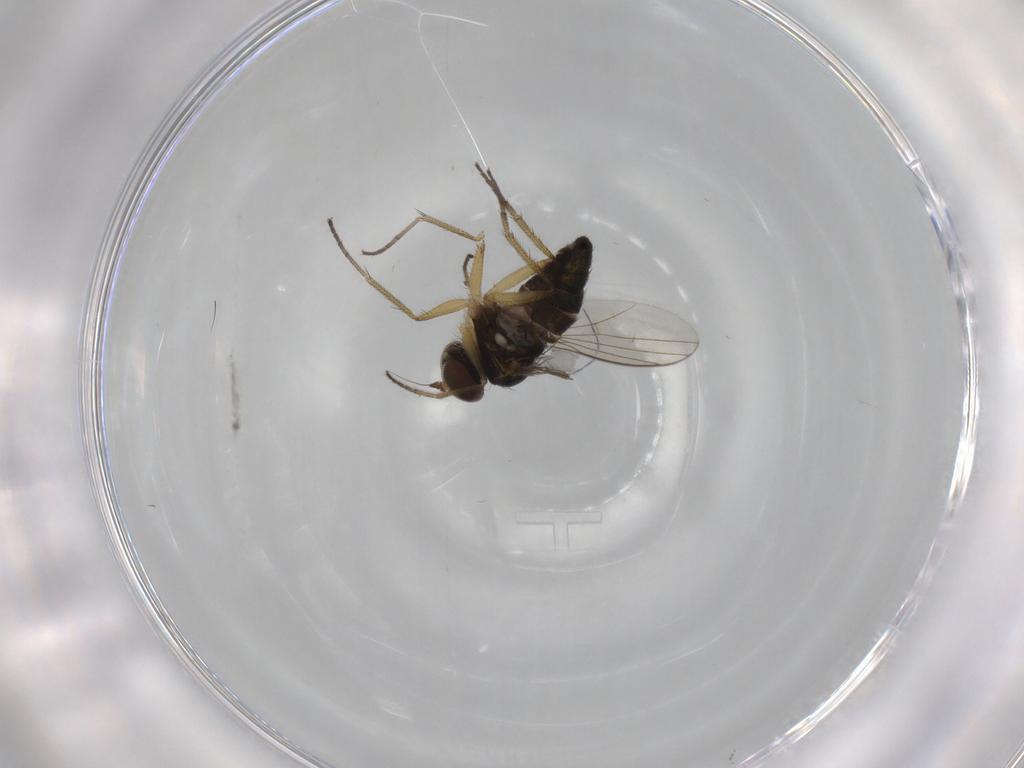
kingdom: Animalia
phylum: Arthropoda
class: Insecta
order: Diptera
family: Dolichopodidae
